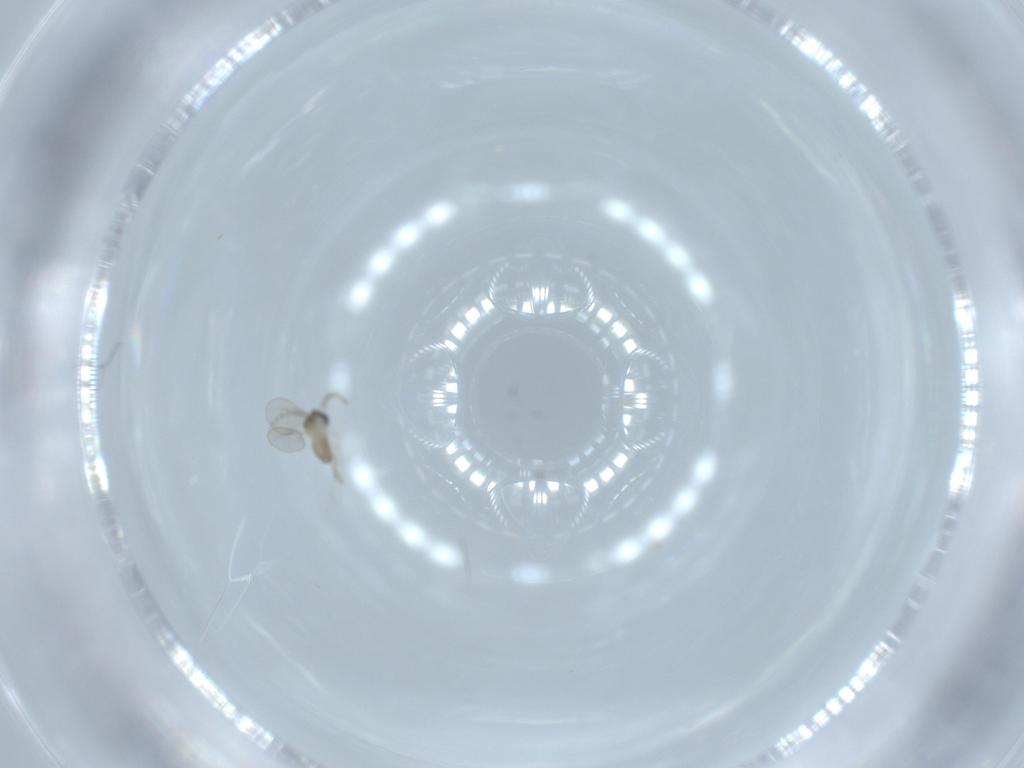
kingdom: Animalia
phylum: Arthropoda
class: Insecta
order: Diptera
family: Cecidomyiidae
